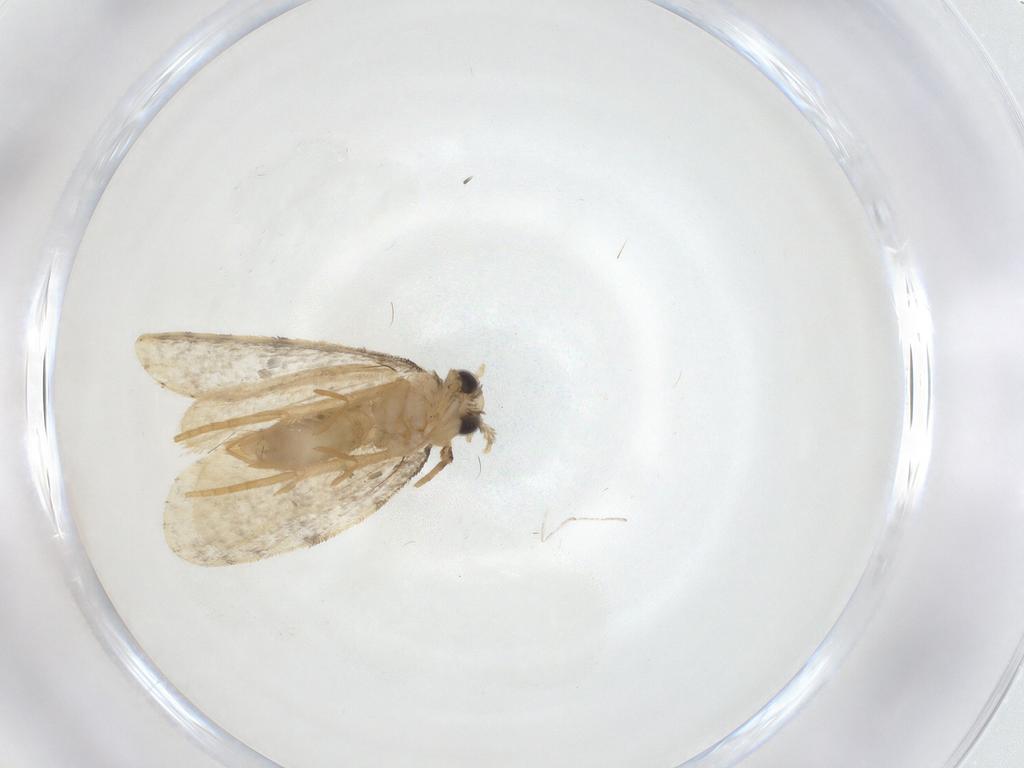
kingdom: Animalia
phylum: Arthropoda
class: Insecta
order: Lepidoptera
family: Psychidae
